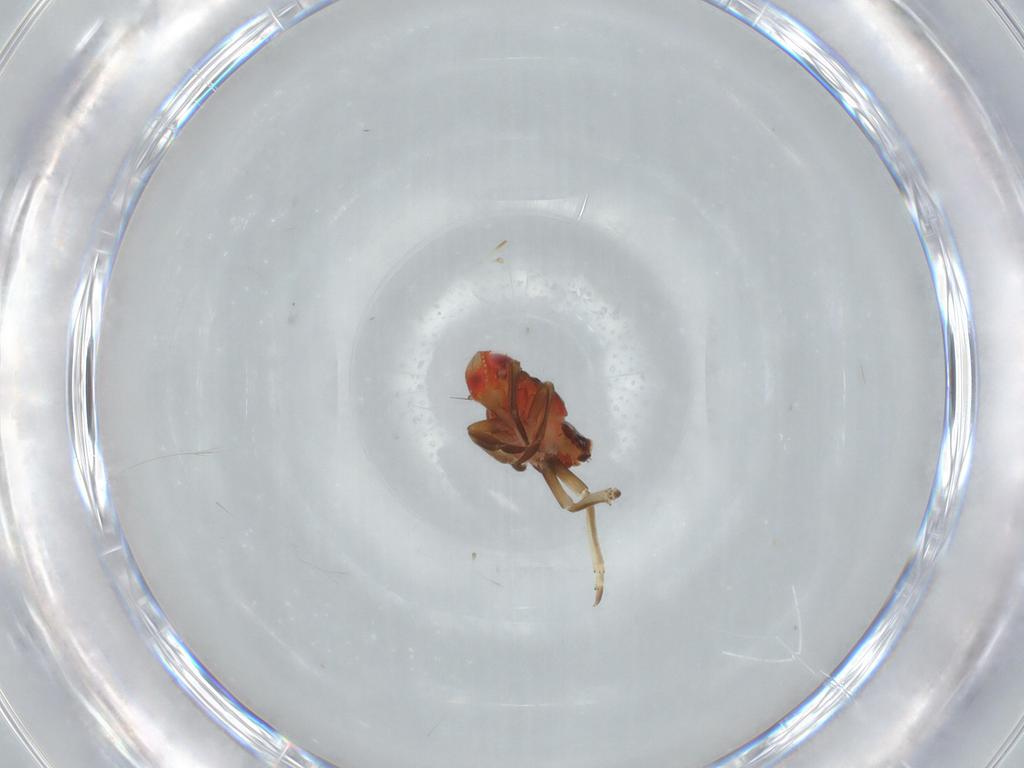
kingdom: Animalia
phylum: Arthropoda
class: Insecta
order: Hemiptera
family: Fulgoroidea_incertae_sedis
